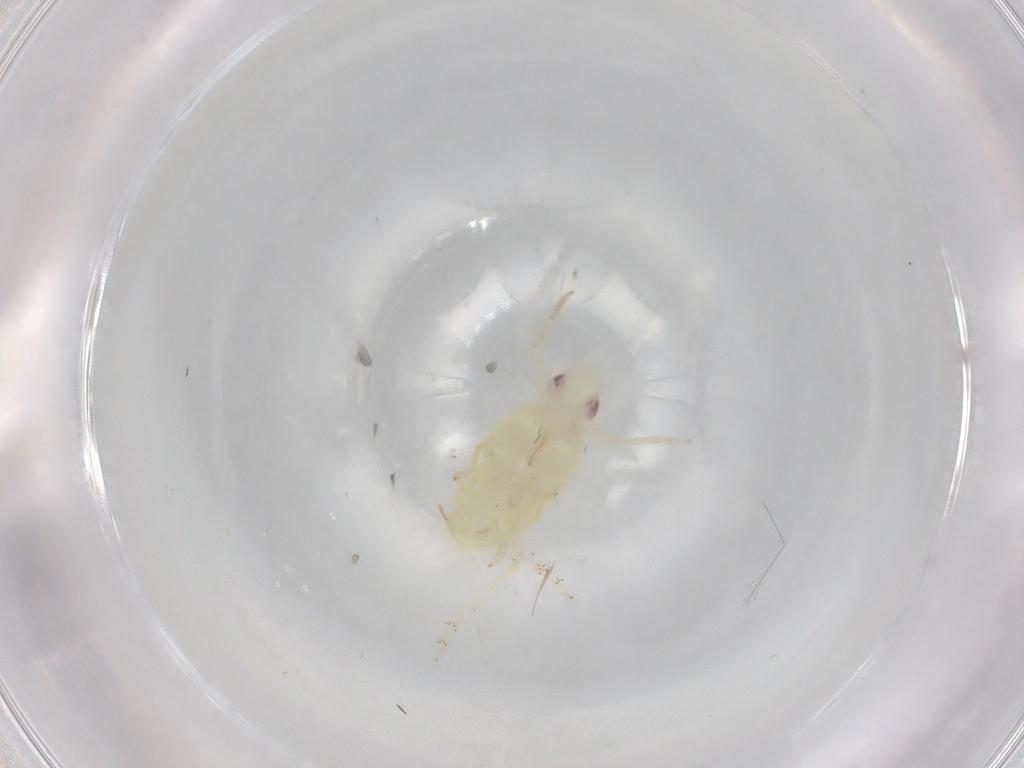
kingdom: Animalia
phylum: Arthropoda
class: Insecta
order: Hemiptera
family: Tropiduchidae
